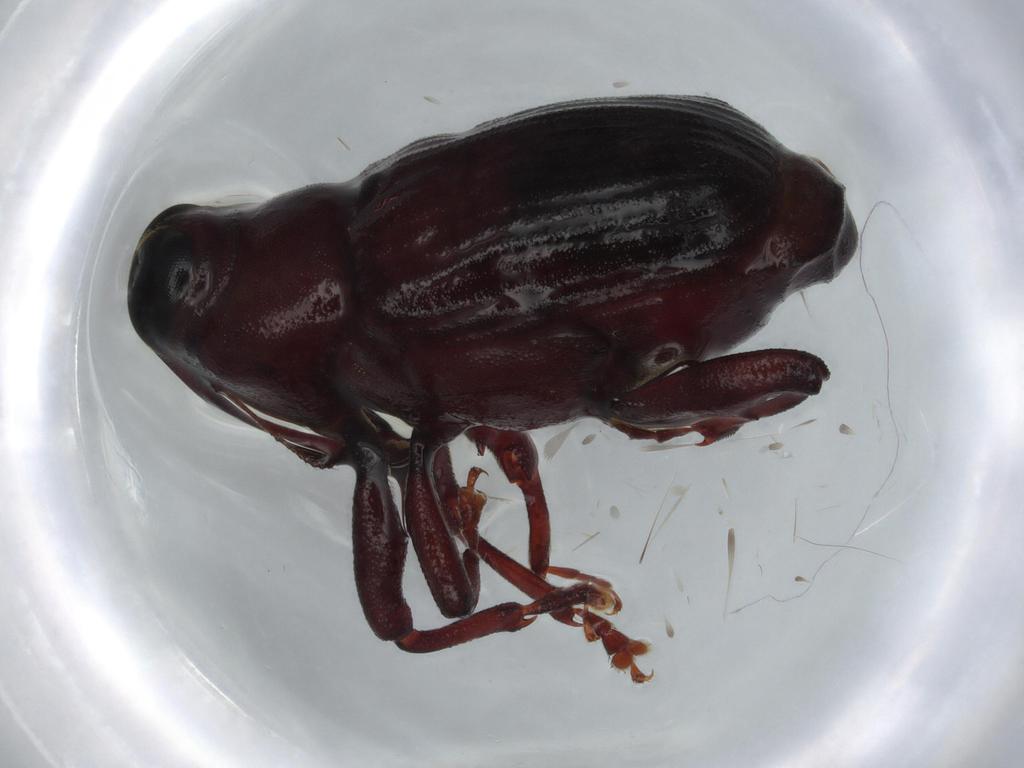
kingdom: Animalia
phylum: Arthropoda
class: Insecta
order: Coleoptera
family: Curculionidae
